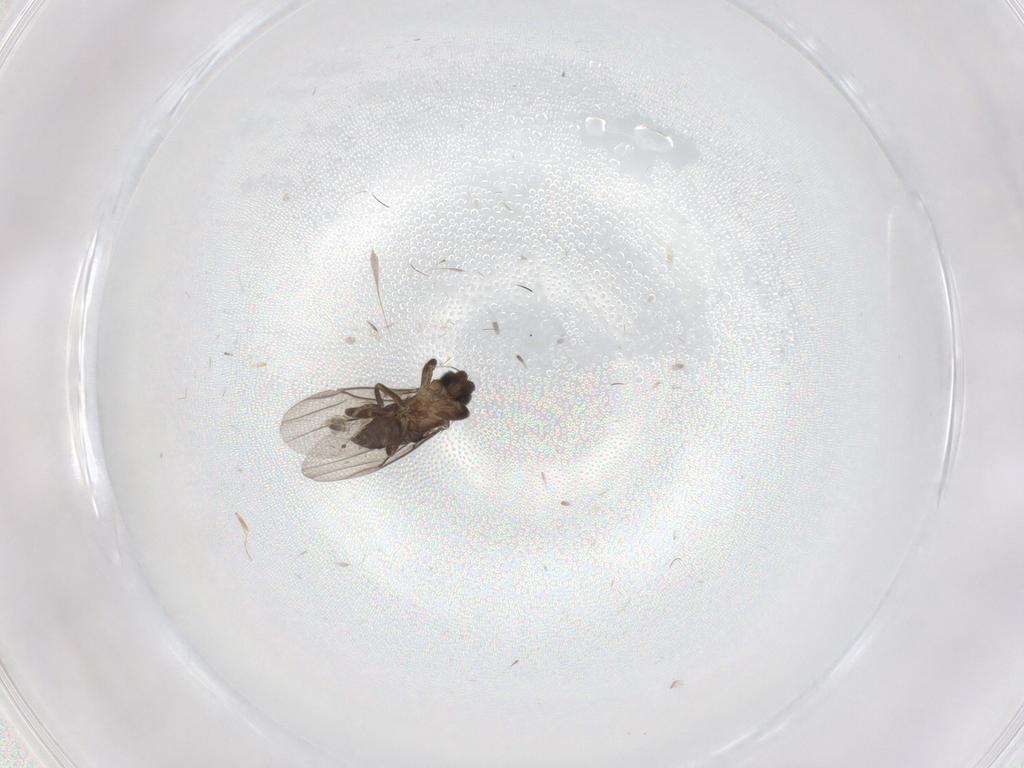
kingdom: Animalia
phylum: Arthropoda
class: Insecta
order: Diptera
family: Chironomidae
